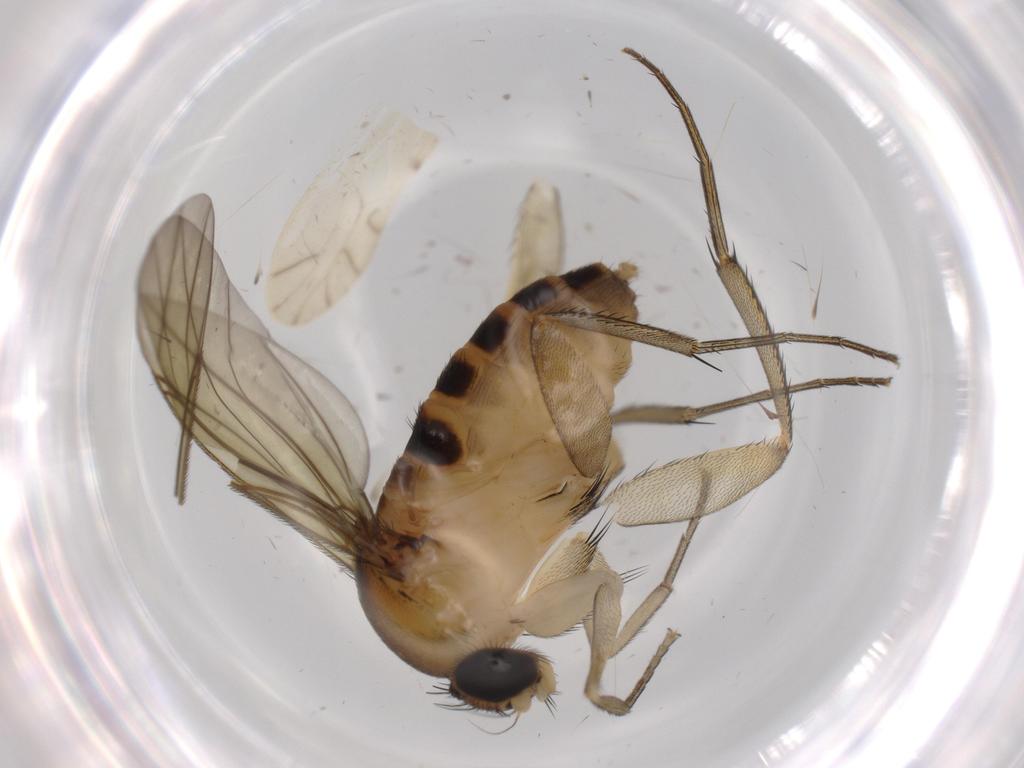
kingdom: Animalia
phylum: Arthropoda
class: Insecta
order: Diptera
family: Phoridae
